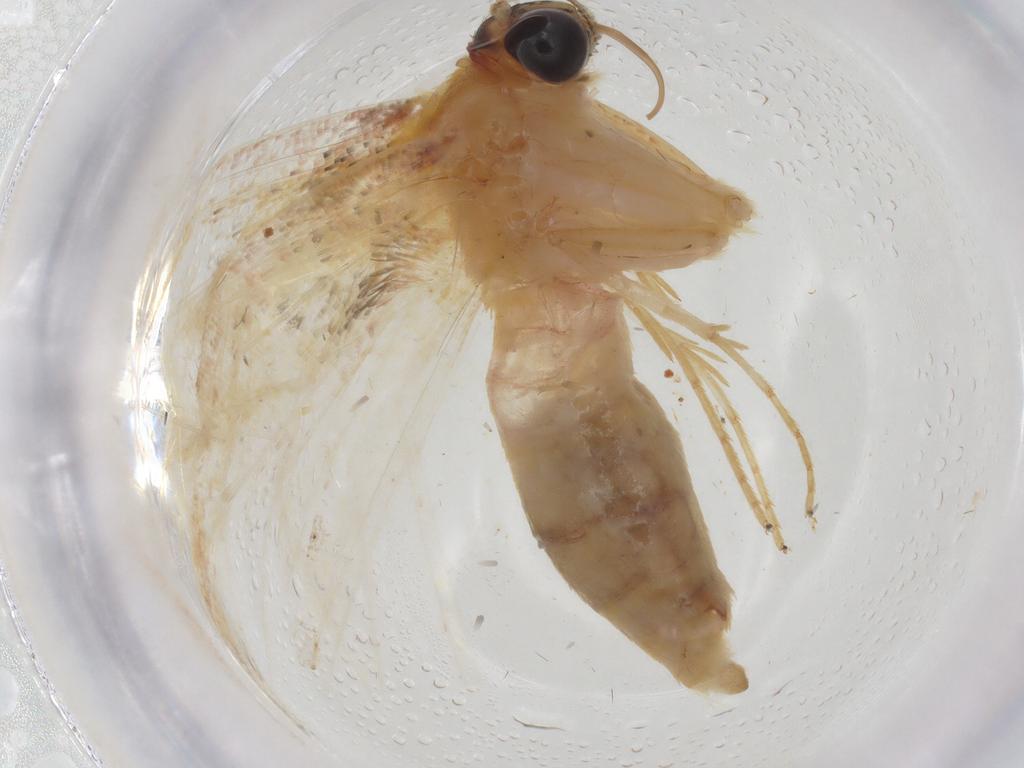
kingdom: Animalia
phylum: Arthropoda
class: Insecta
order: Lepidoptera
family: Geometridae
